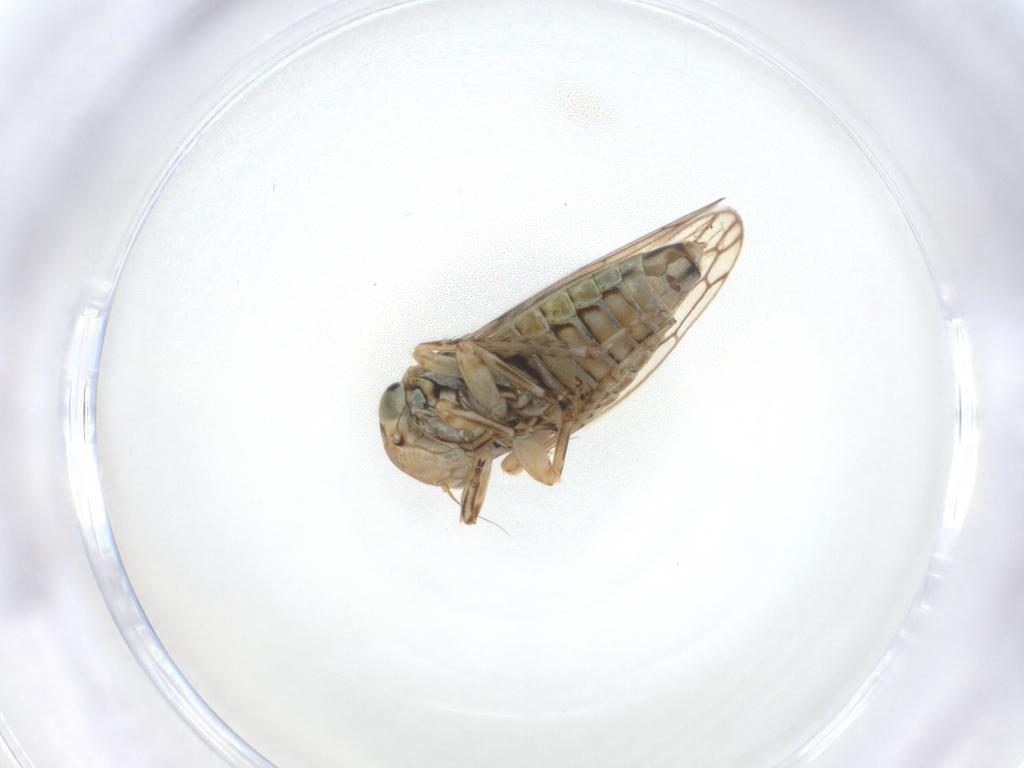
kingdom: Animalia
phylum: Arthropoda
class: Insecta
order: Hemiptera
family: Cicadellidae
